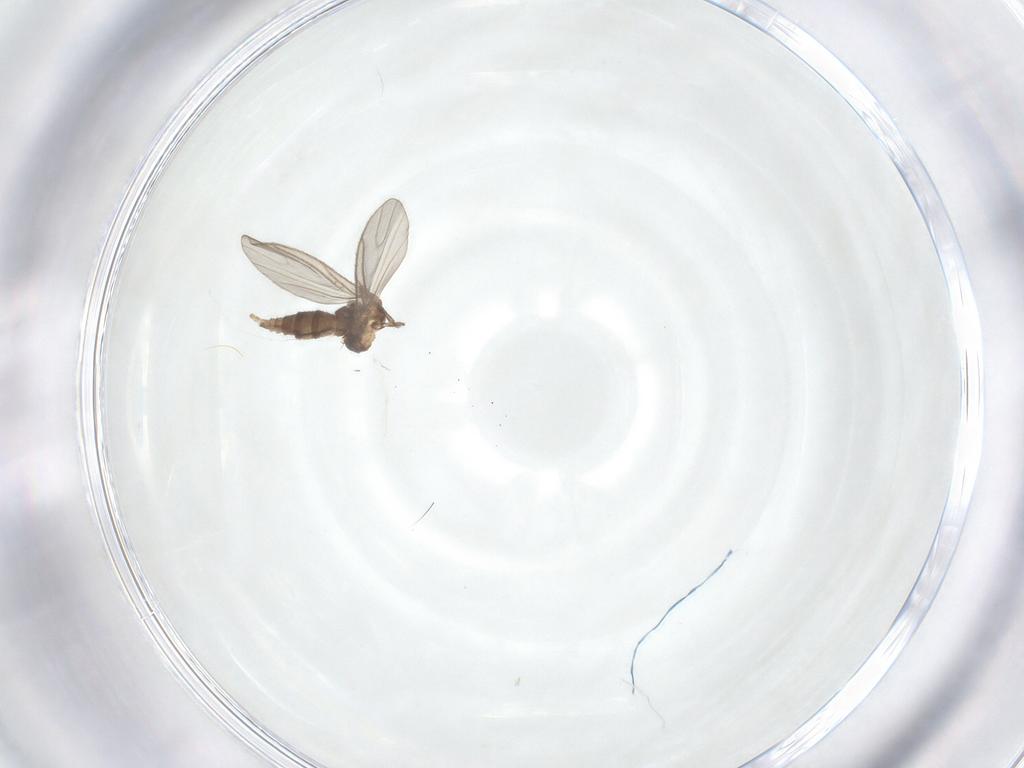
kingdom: Animalia
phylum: Arthropoda
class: Insecta
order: Diptera
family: Sciaridae
